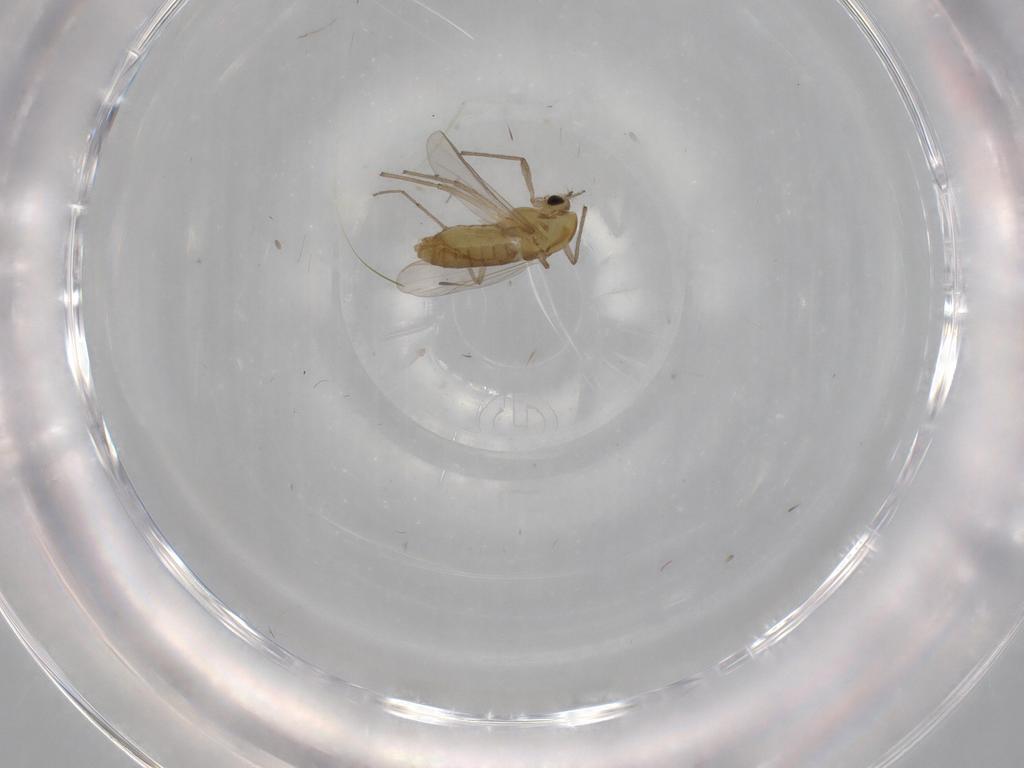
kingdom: Animalia
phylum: Arthropoda
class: Insecta
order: Diptera
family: Chironomidae
